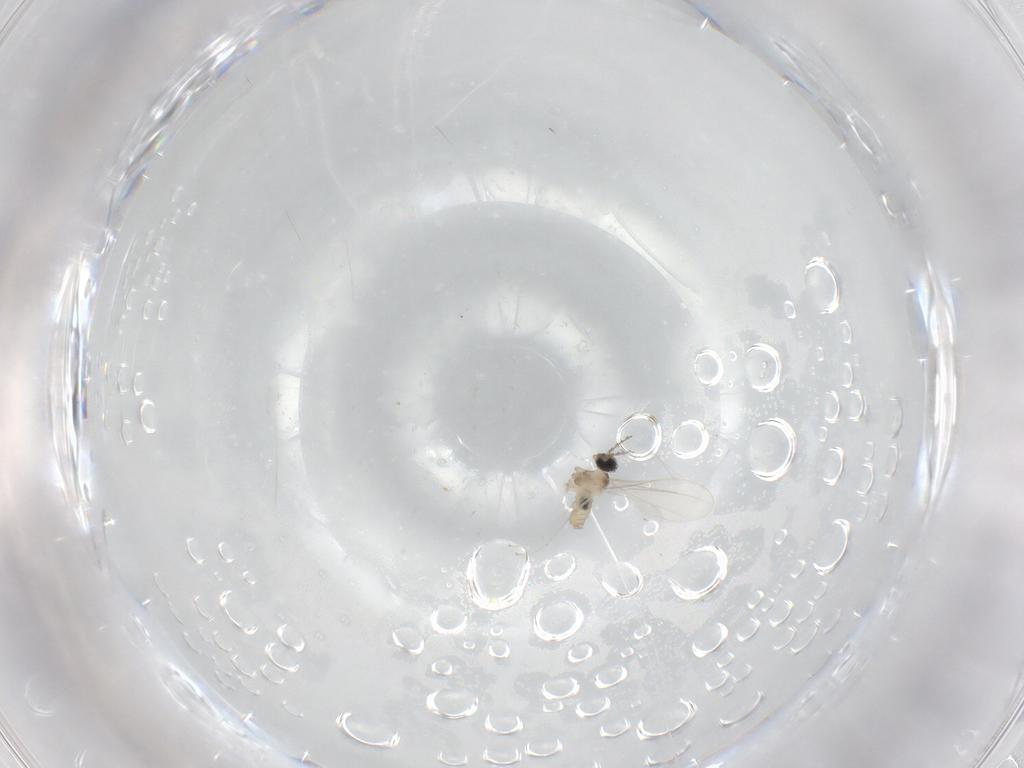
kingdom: Animalia
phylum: Arthropoda
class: Insecta
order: Diptera
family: Cecidomyiidae
